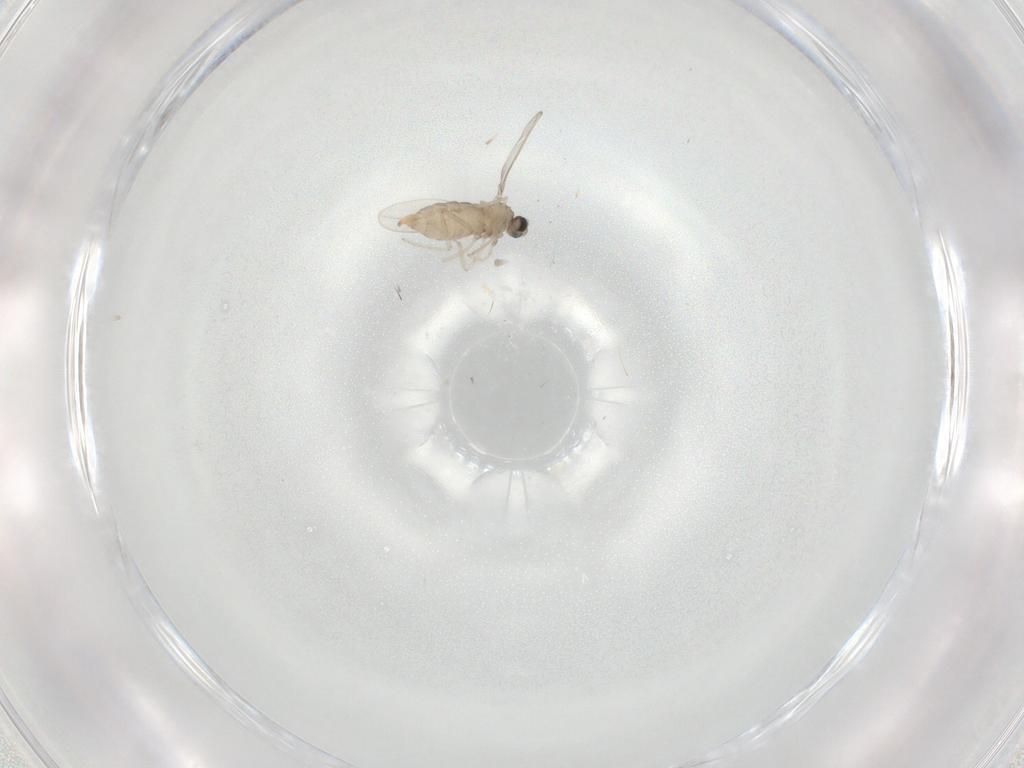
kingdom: Animalia
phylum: Arthropoda
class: Insecta
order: Diptera
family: Cecidomyiidae
